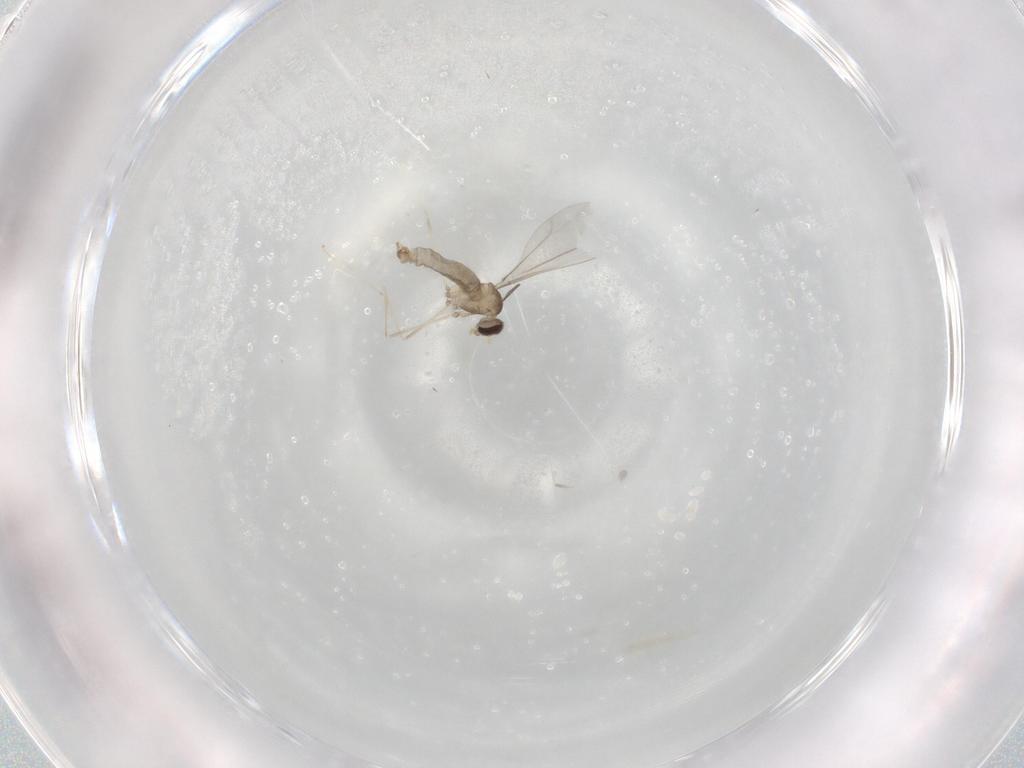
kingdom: Animalia
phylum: Arthropoda
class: Insecta
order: Diptera
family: Cecidomyiidae
